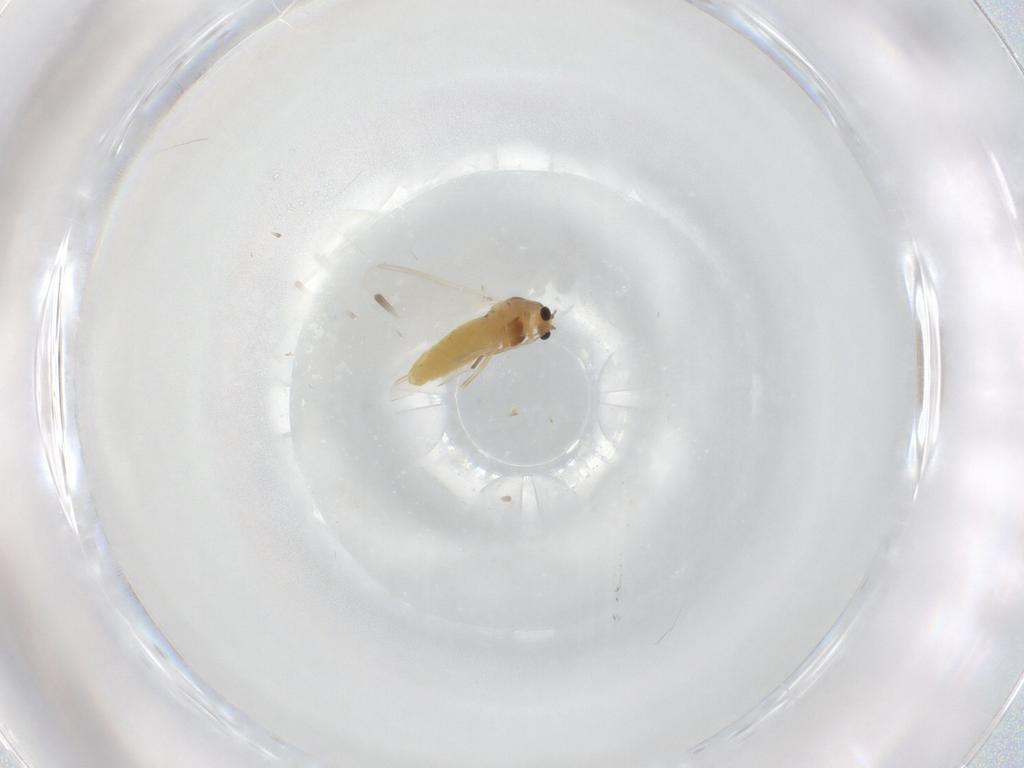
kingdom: Animalia
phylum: Arthropoda
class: Insecta
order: Diptera
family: Chironomidae
